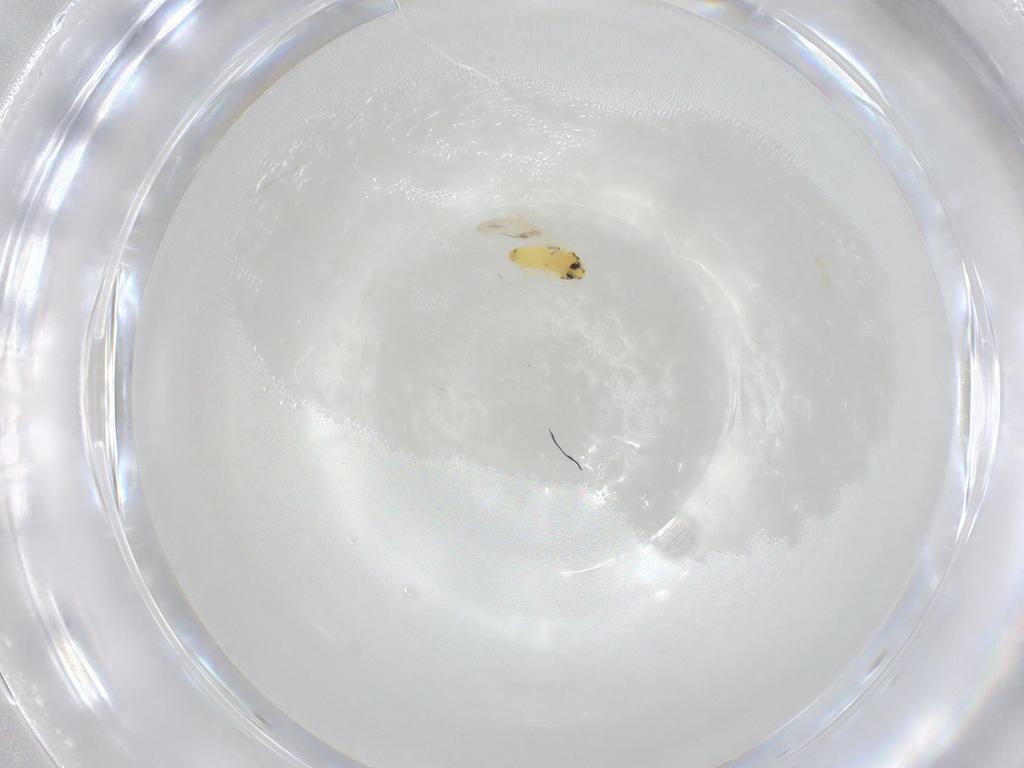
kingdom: Animalia
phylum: Arthropoda
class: Insecta
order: Hemiptera
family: Aleyrodidae
